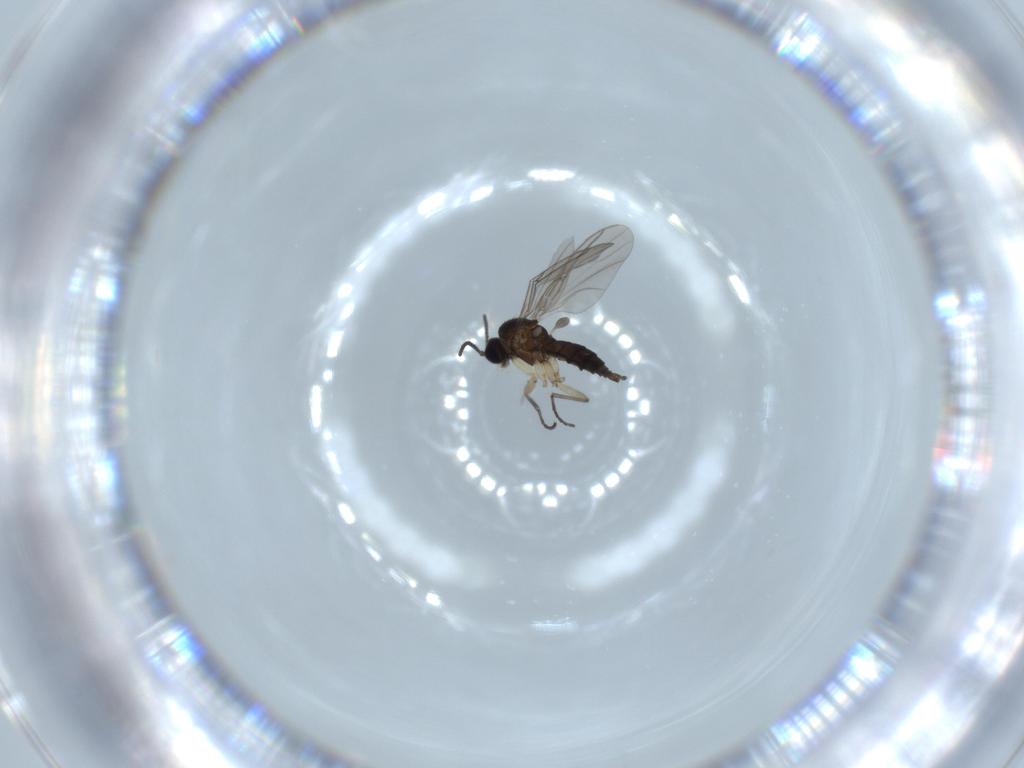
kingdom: Animalia
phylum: Arthropoda
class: Insecta
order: Diptera
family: Sciaridae
